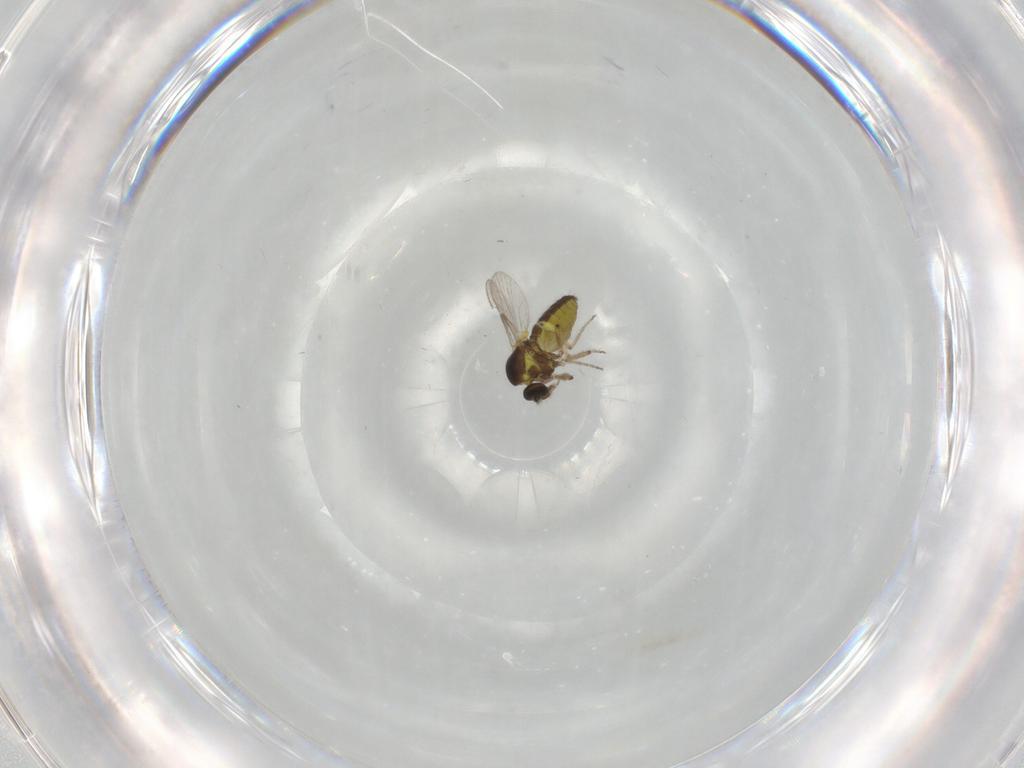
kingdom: Animalia
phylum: Arthropoda
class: Insecta
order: Diptera
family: Ceratopogonidae
